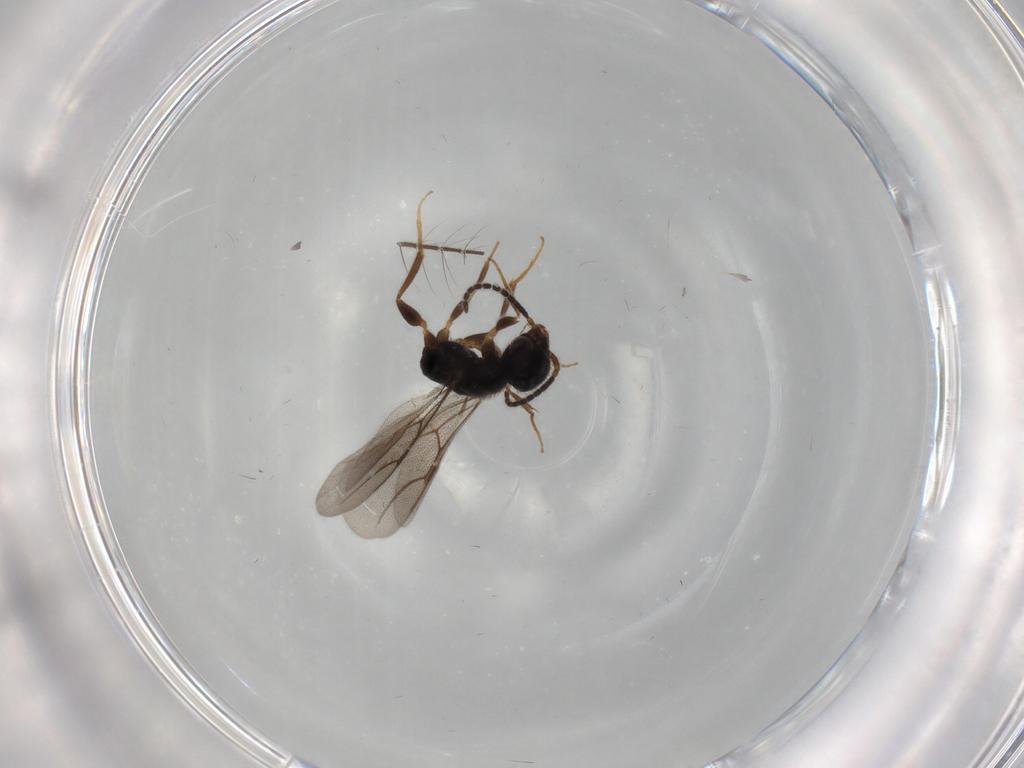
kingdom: Animalia
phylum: Arthropoda
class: Insecta
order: Hymenoptera
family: Bethylidae
